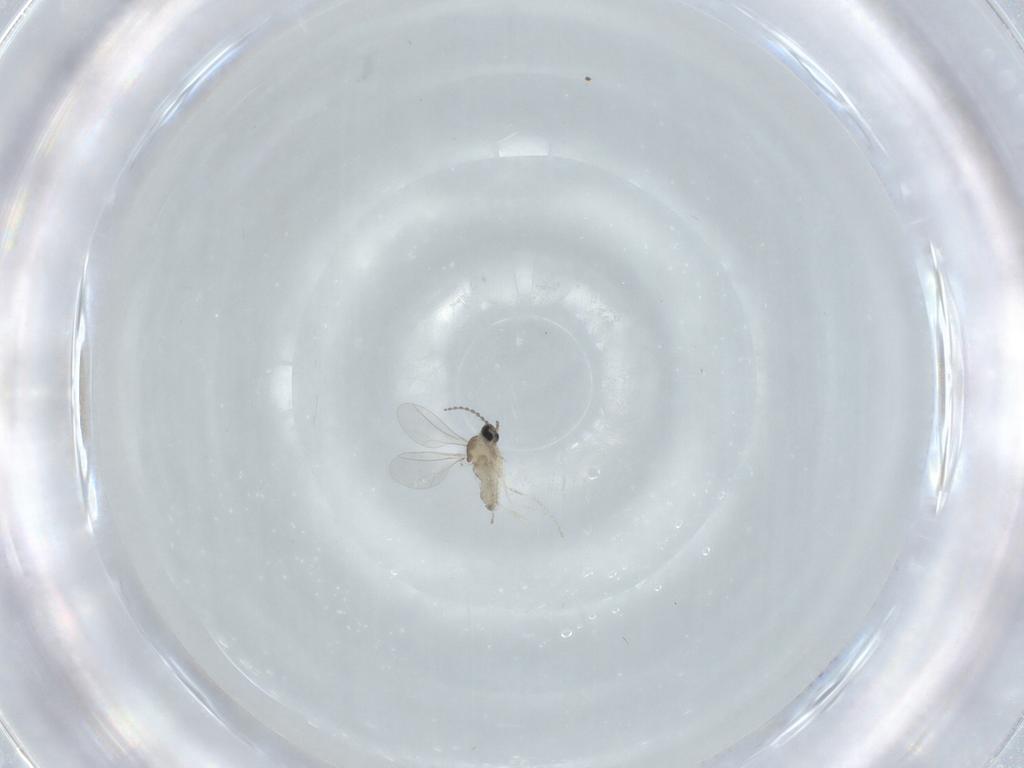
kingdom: Animalia
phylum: Arthropoda
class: Insecta
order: Diptera
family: Cecidomyiidae
